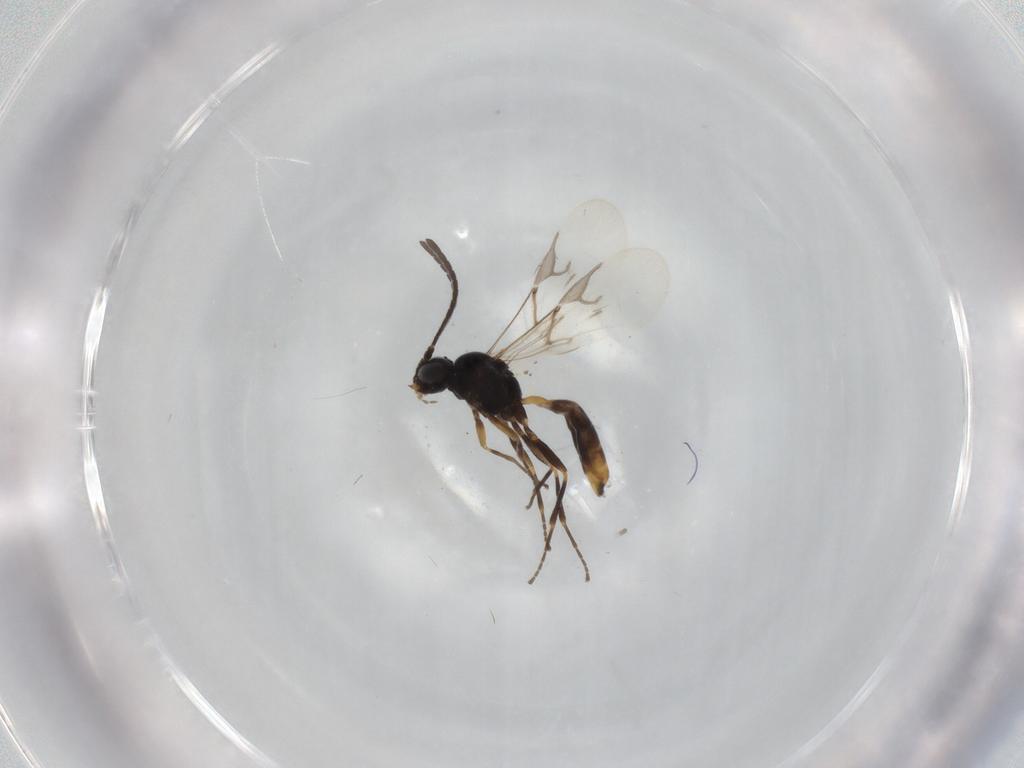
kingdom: Animalia
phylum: Arthropoda
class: Insecta
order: Hymenoptera
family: Braconidae
